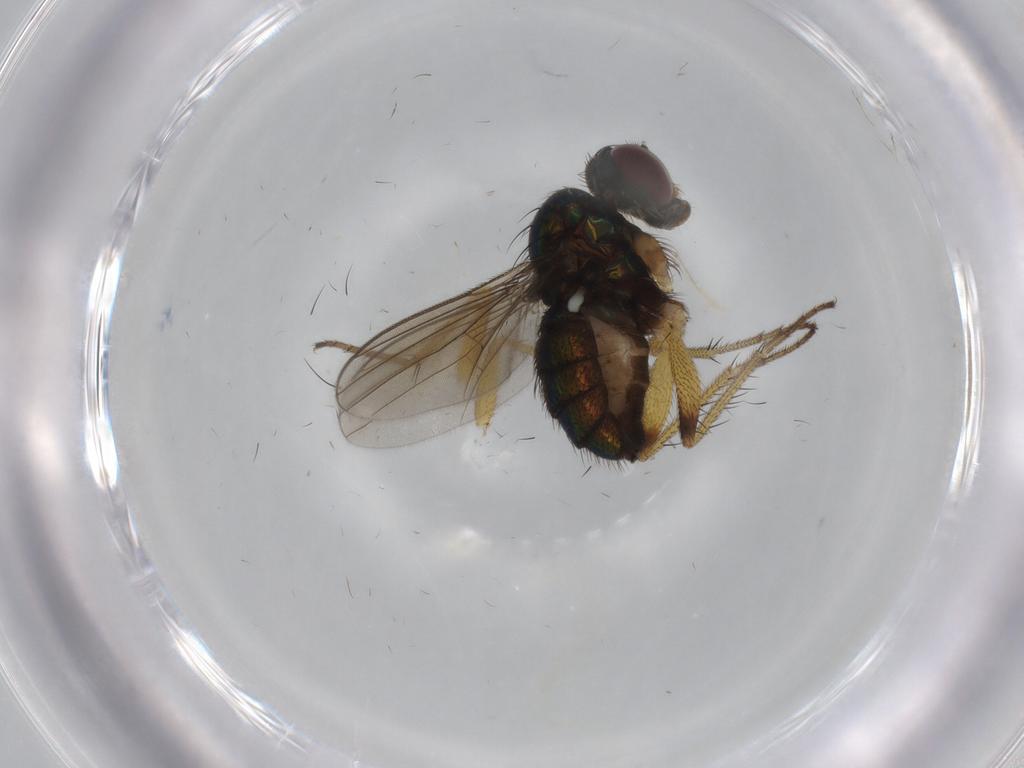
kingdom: Animalia
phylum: Arthropoda
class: Insecta
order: Diptera
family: Dolichopodidae
